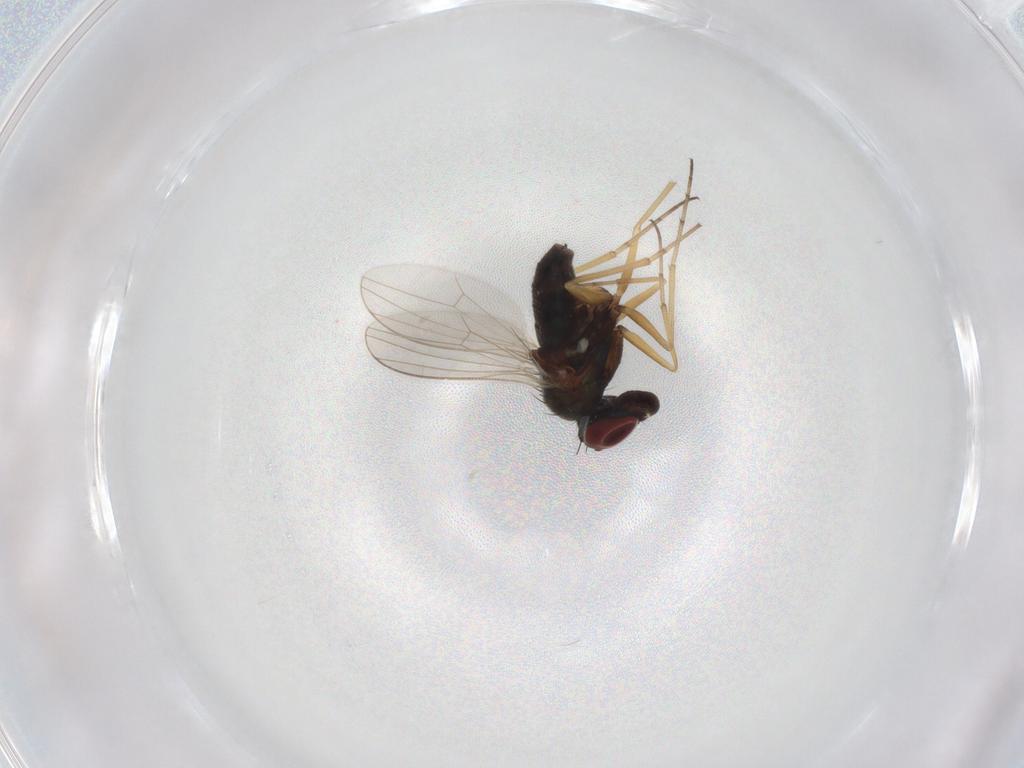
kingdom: Animalia
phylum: Arthropoda
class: Insecta
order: Diptera
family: Dolichopodidae
